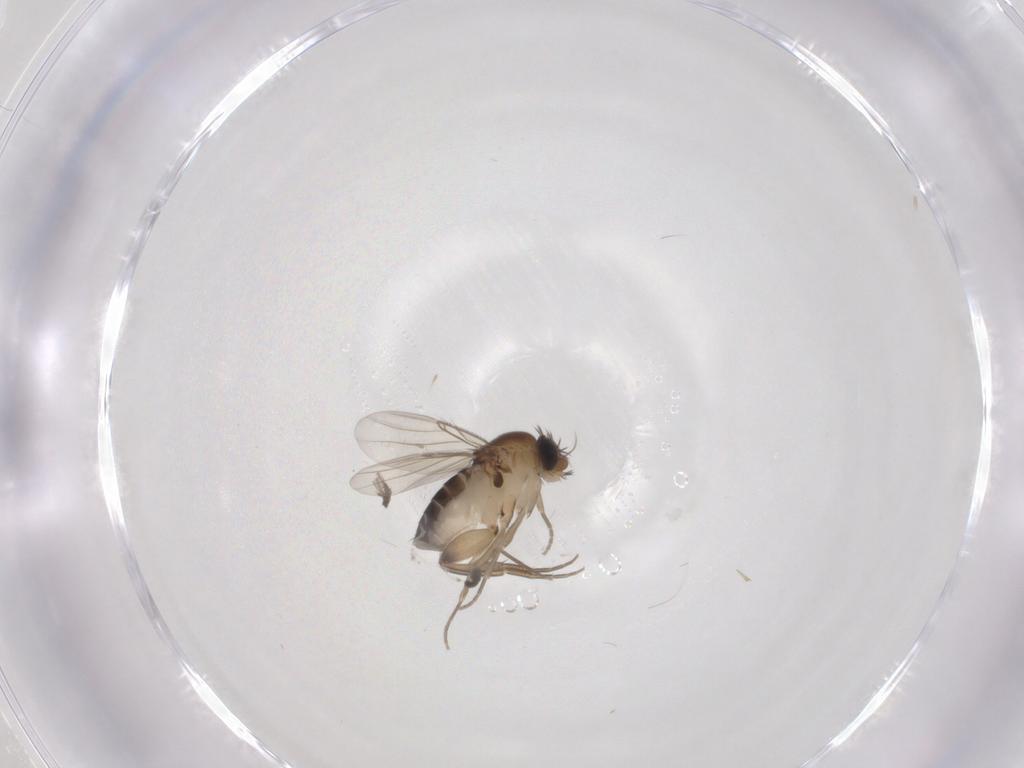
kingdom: Animalia
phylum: Arthropoda
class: Insecta
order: Diptera
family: Phoridae
